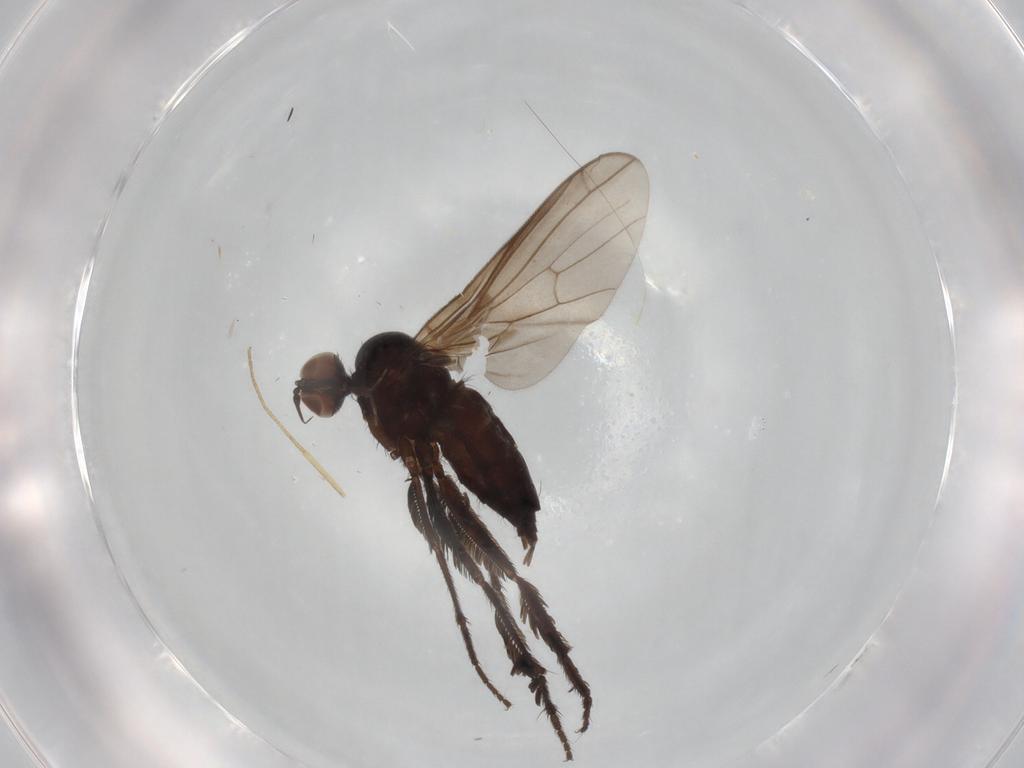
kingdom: Animalia
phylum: Arthropoda
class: Insecta
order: Diptera
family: Empididae
